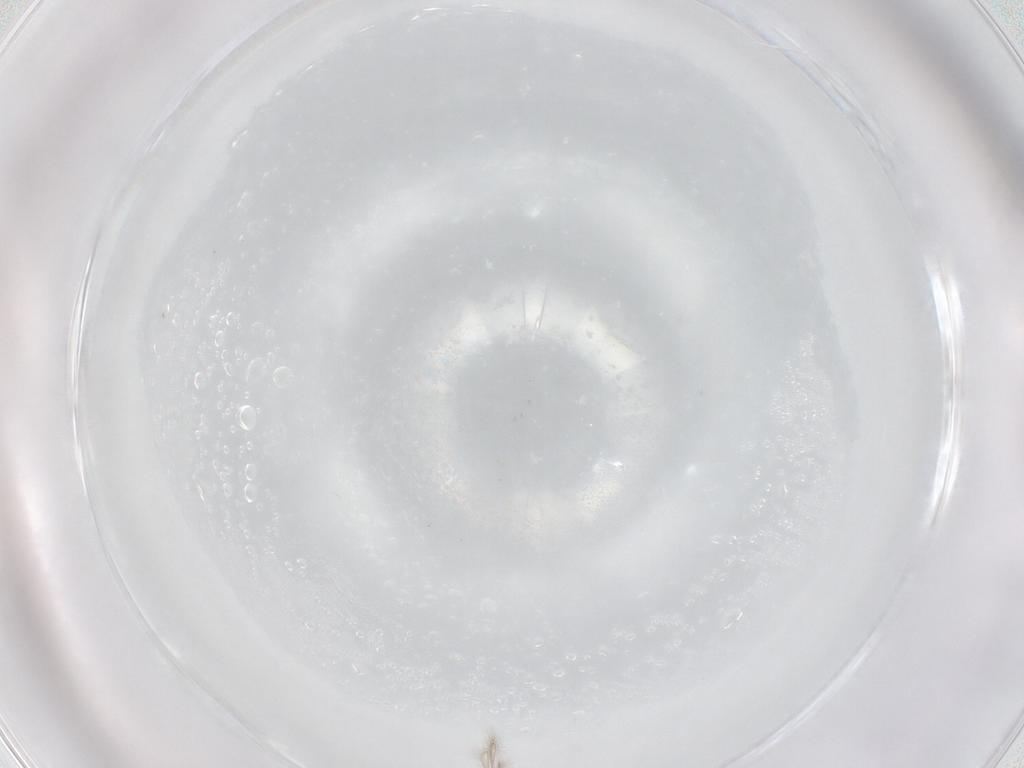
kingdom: Animalia
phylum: Arthropoda
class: Insecta
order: Hymenoptera
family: Mymaridae
